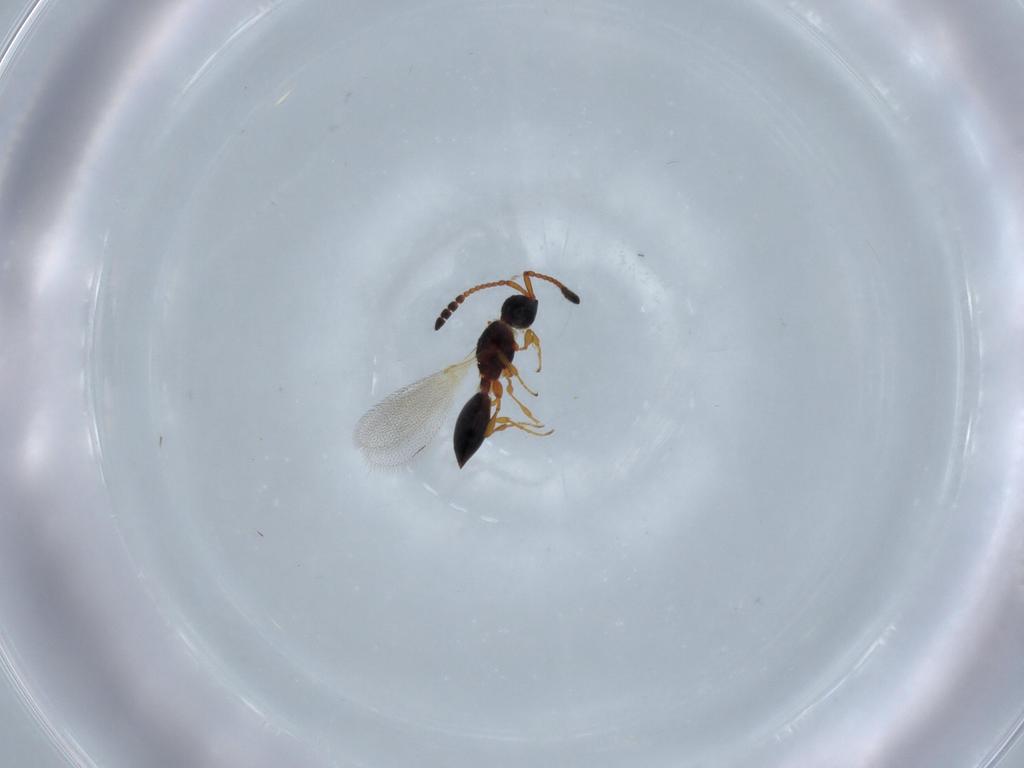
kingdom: Animalia
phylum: Arthropoda
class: Insecta
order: Hymenoptera
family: Diapriidae
